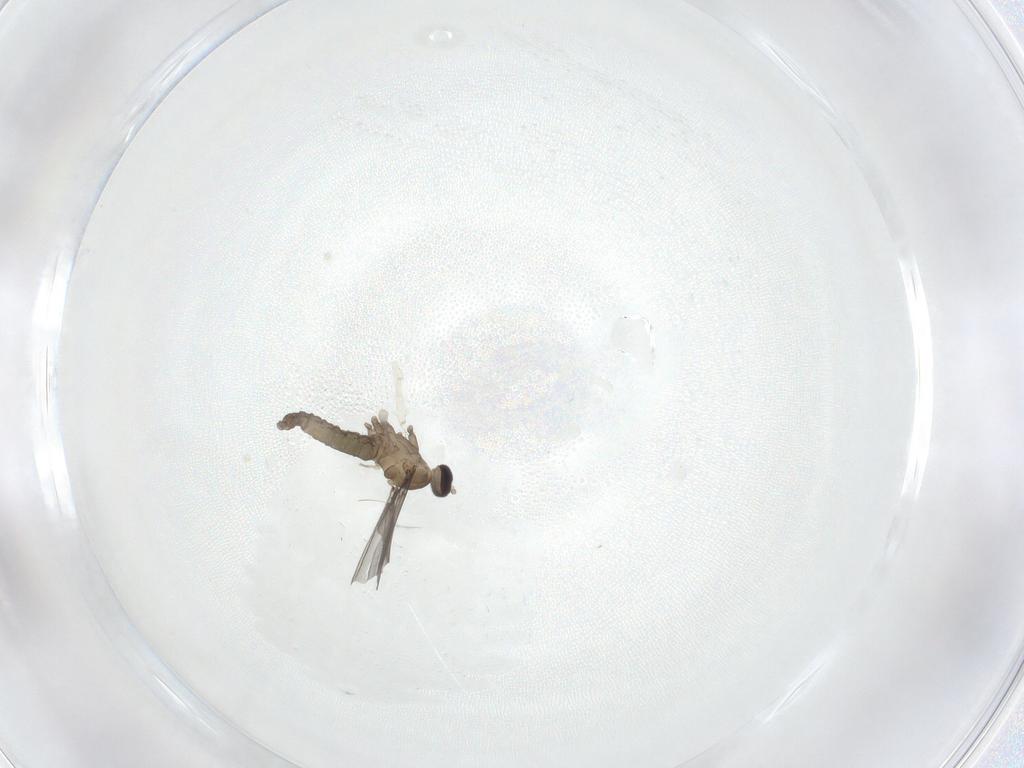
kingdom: Animalia
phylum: Arthropoda
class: Insecta
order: Diptera
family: Cecidomyiidae
